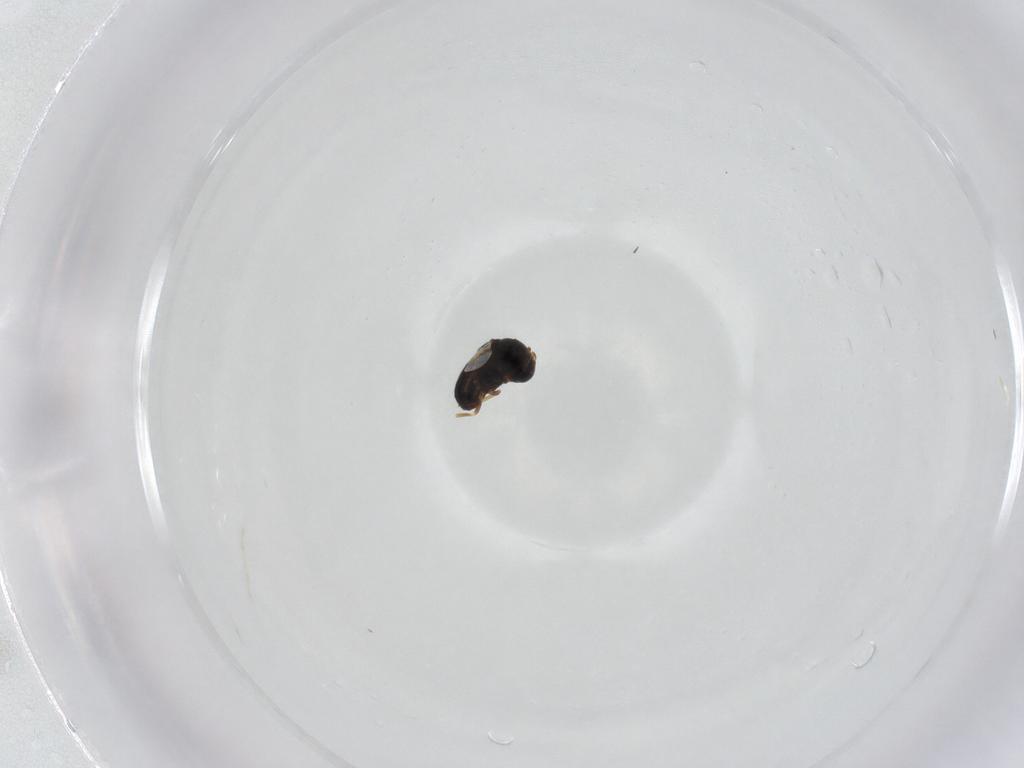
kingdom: Animalia
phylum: Arthropoda
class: Insecta
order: Hymenoptera
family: Scelionidae
